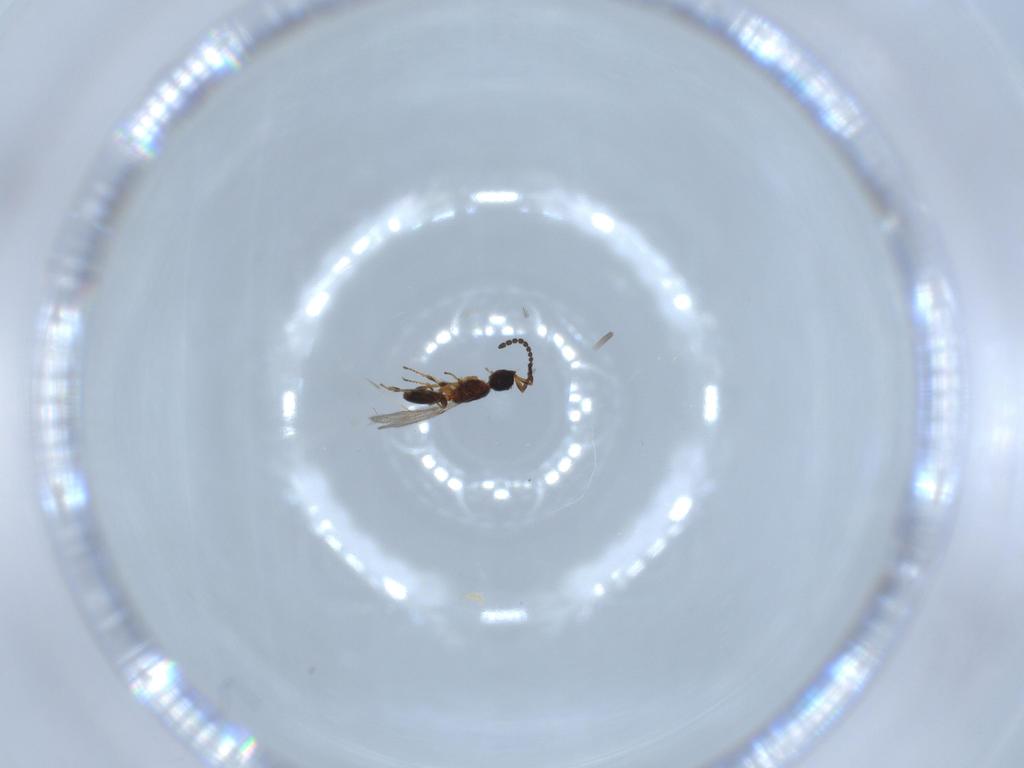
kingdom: Animalia
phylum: Arthropoda
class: Insecta
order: Hymenoptera
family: Diapriidae
